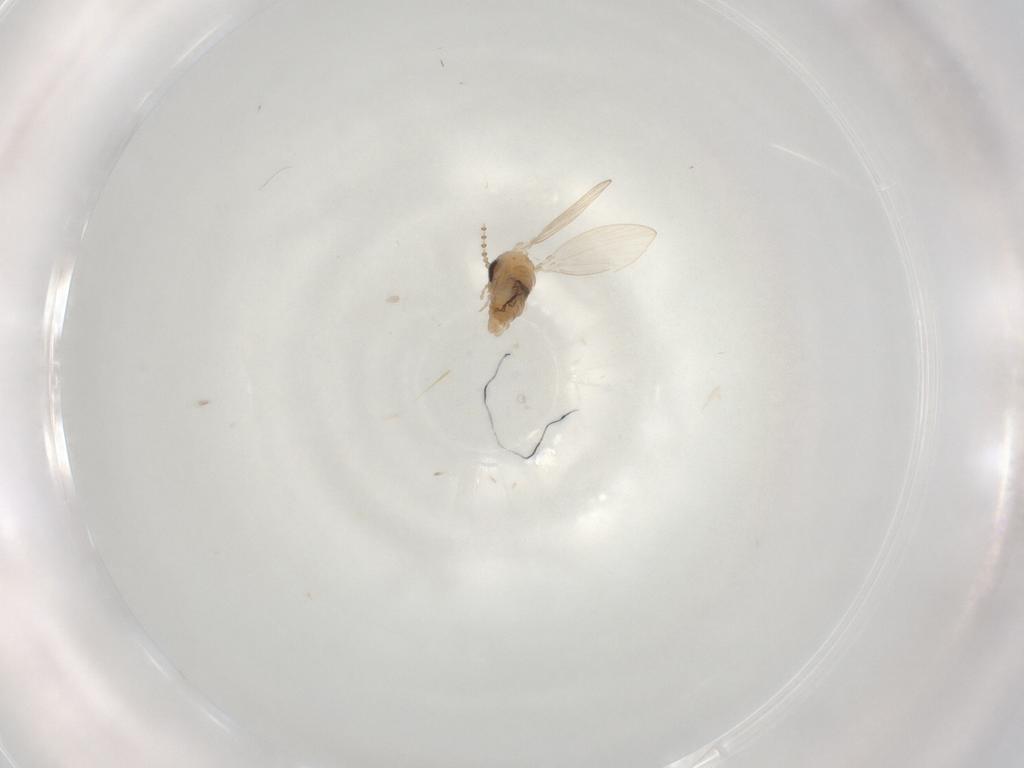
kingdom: Animalia
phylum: Arthropoda
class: Insecta
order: Diptera
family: Psychodidae
